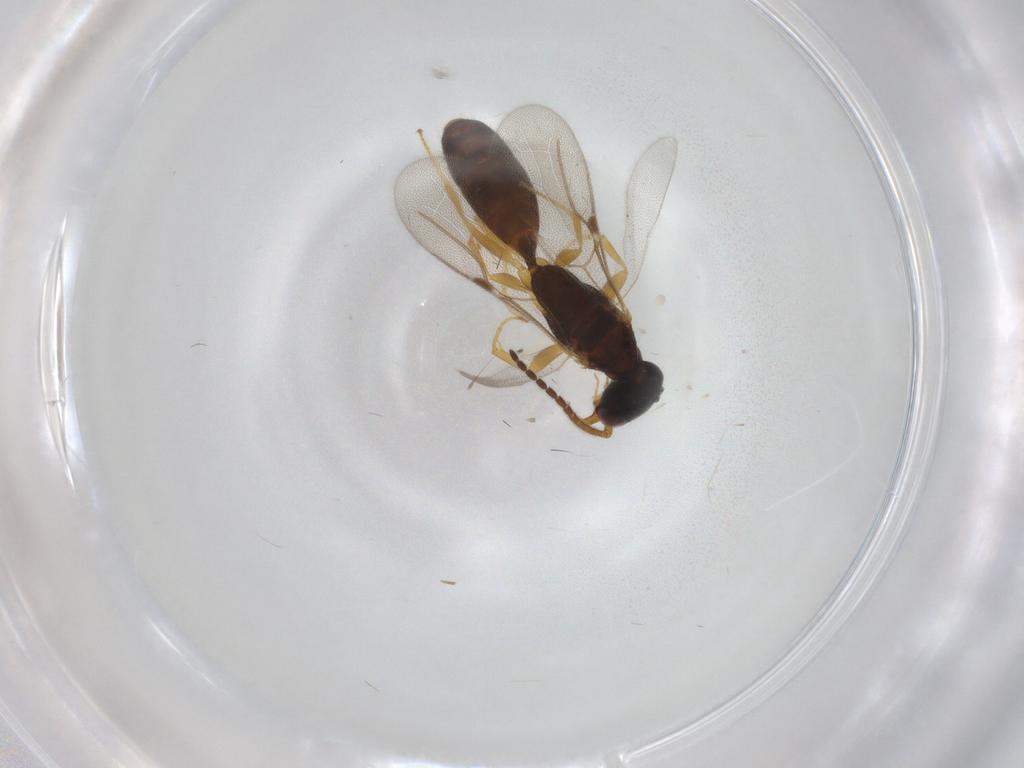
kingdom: Animalia
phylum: Arthropoda
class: Insecta
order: Hymenoptera
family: Bethylidae
